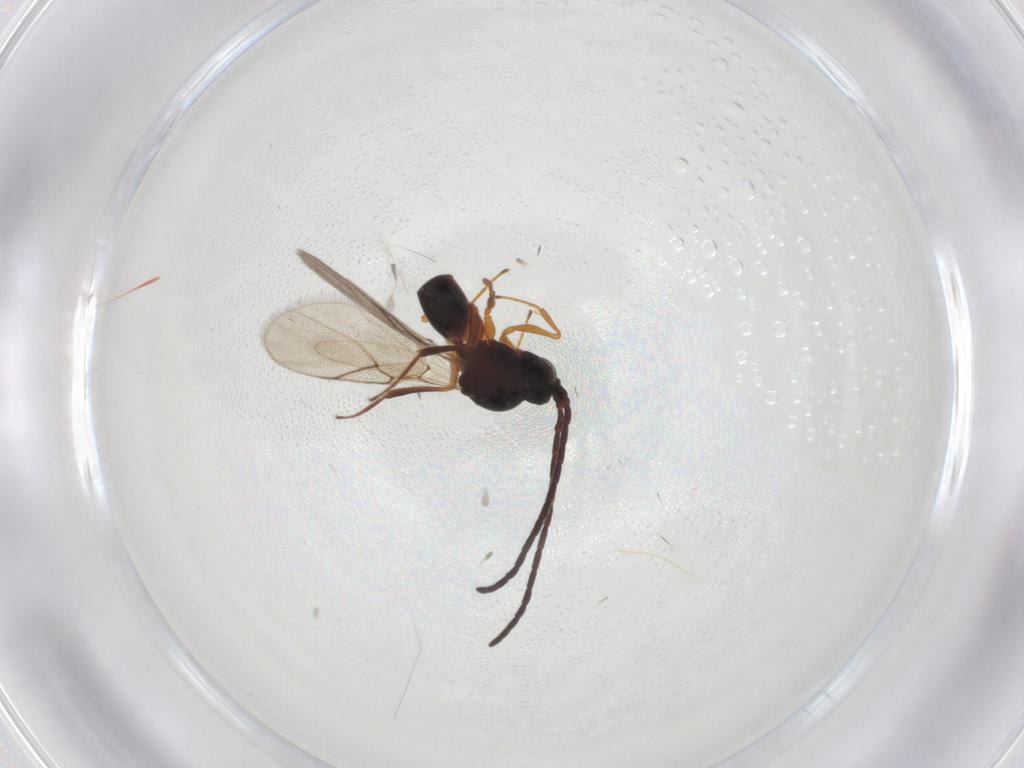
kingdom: Animalia
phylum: Arthropoda
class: Insecta
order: Hymenoptera
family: Figitidae
